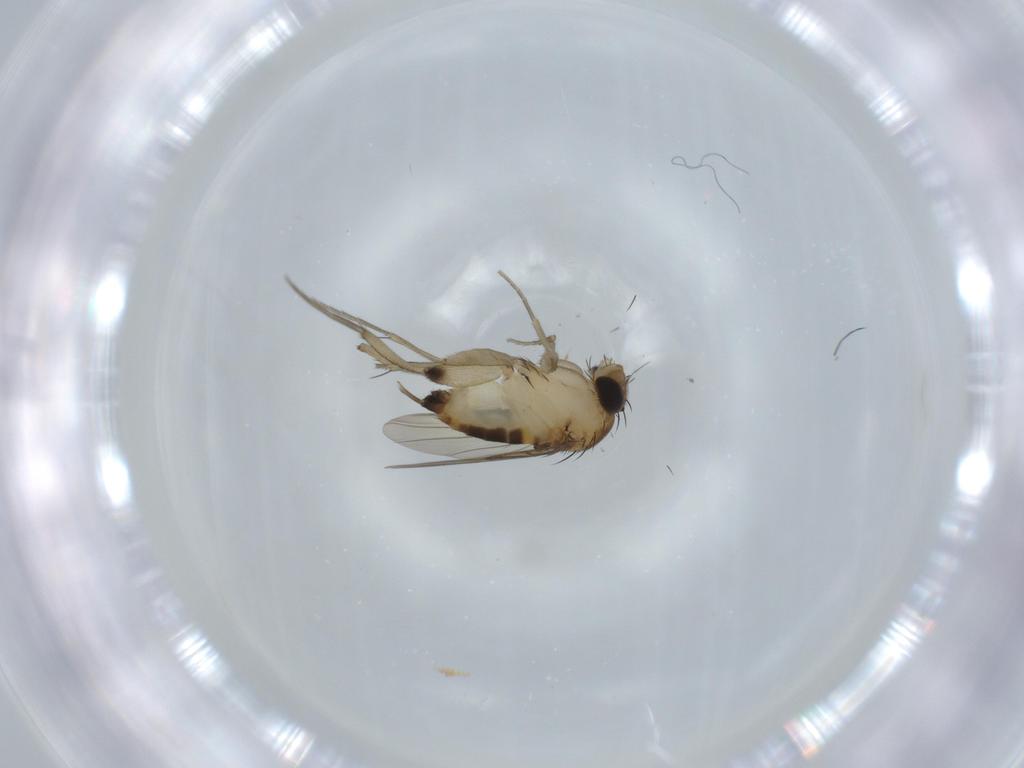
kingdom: Animalia
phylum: Arthropoda
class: Insecta
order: Diptera
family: Phoridae
